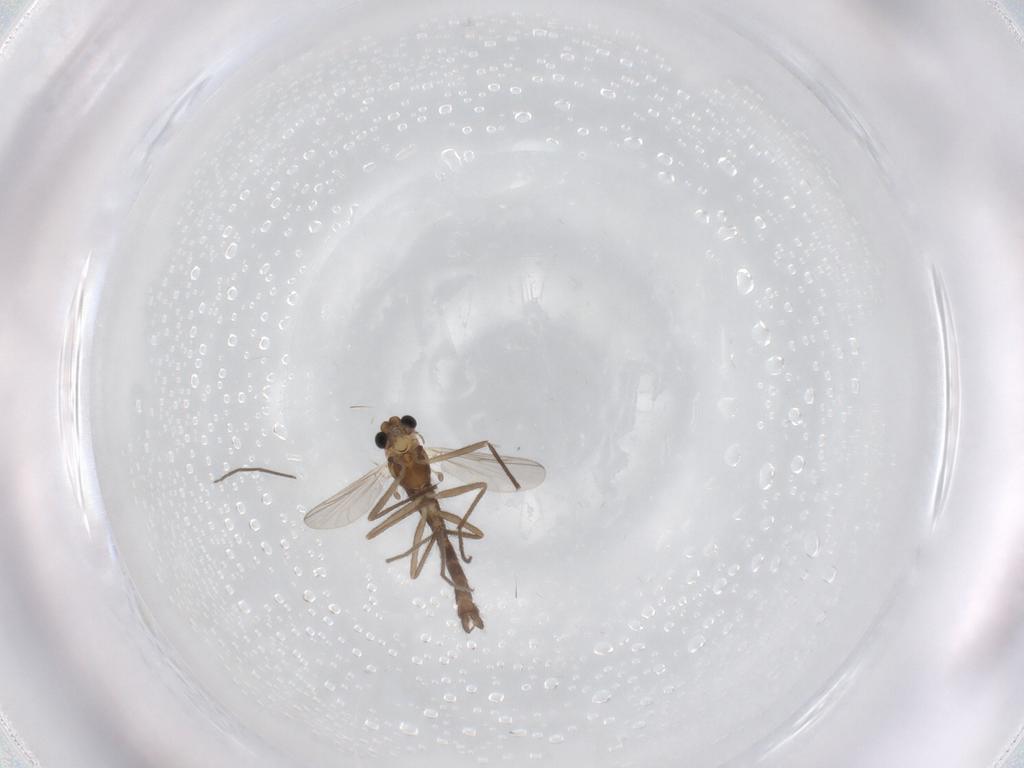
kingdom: Animalia
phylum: Arthropoda
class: Insecta
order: Diptera
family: Chironomidae
